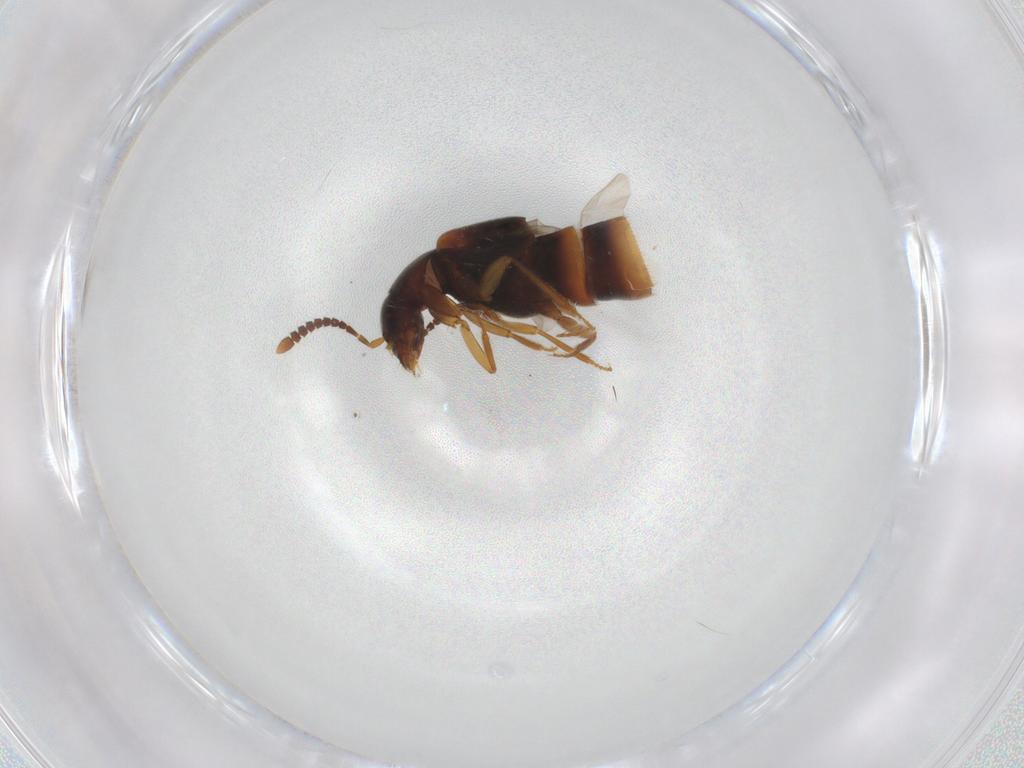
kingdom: Animalia
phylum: Arthropoda
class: Insecta
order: Coleoptera
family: Staphylinidae
